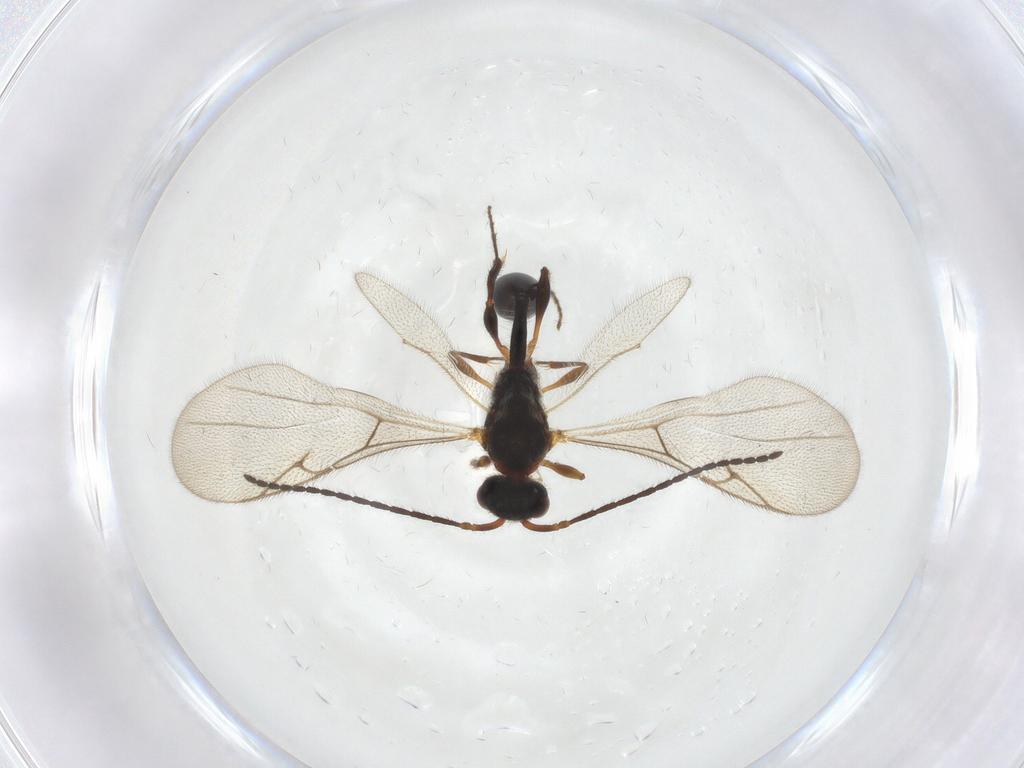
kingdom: Animalia
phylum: Arthropoda
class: Insecta
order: Hymenoptera
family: Diapriidae
